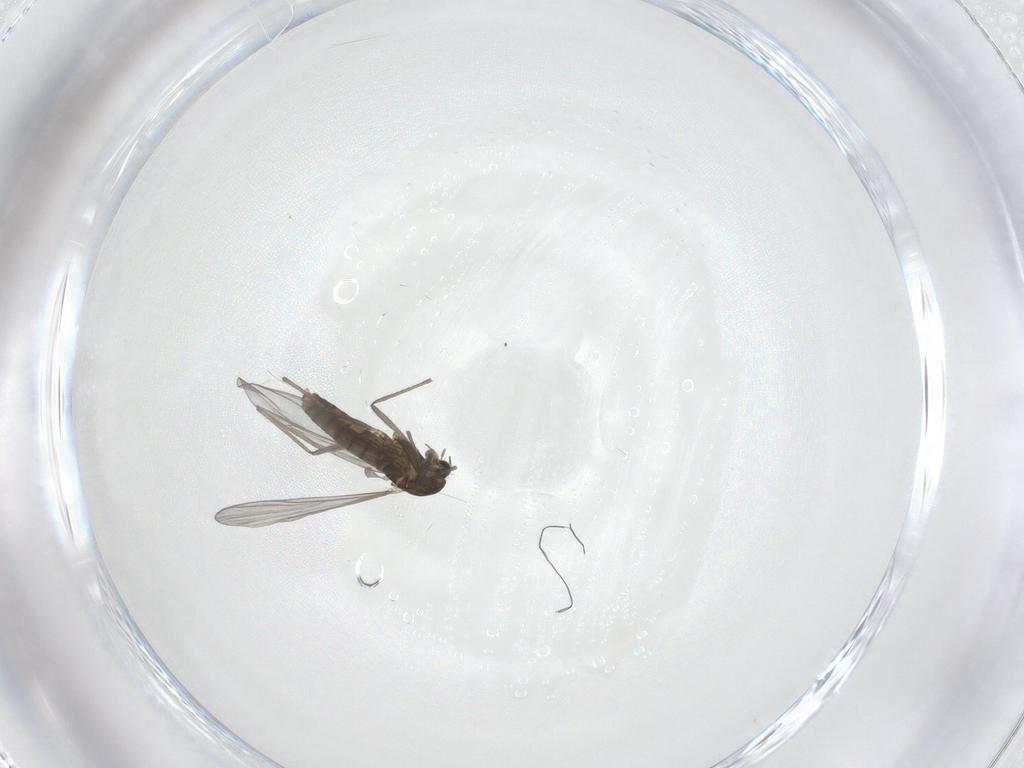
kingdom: Animalia
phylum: Arthropoda
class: Insecta
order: Diptera
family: Chironomidae
